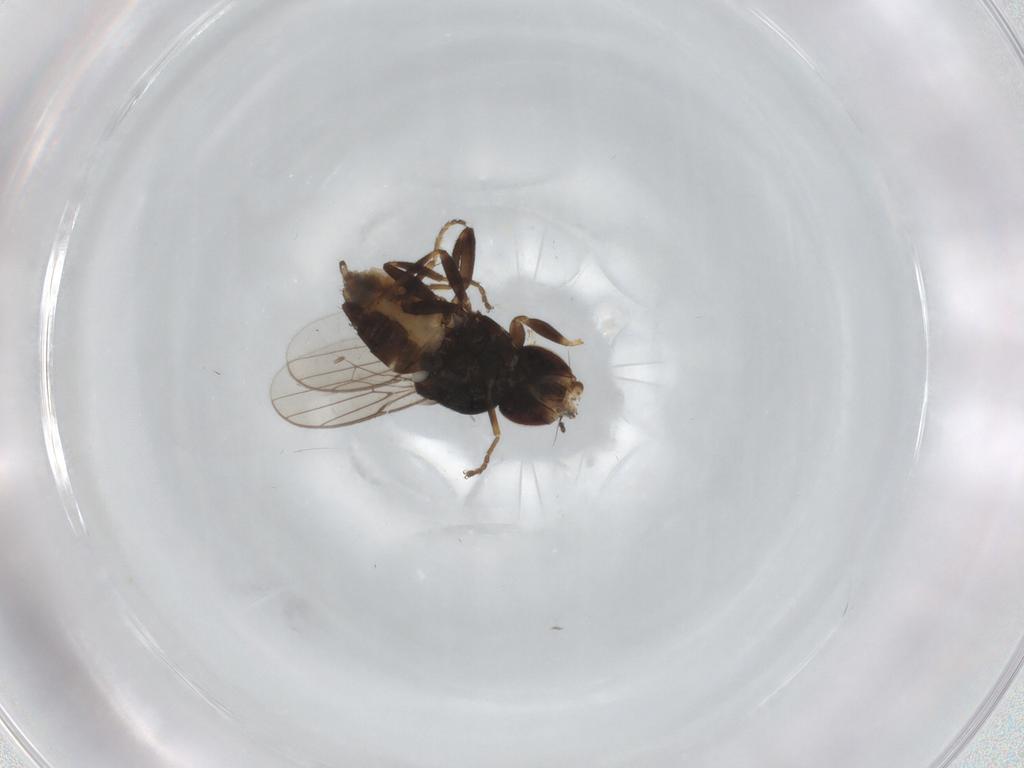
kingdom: Animalia
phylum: Arthropoda
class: Insecta
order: Diptera
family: Chloropidae
